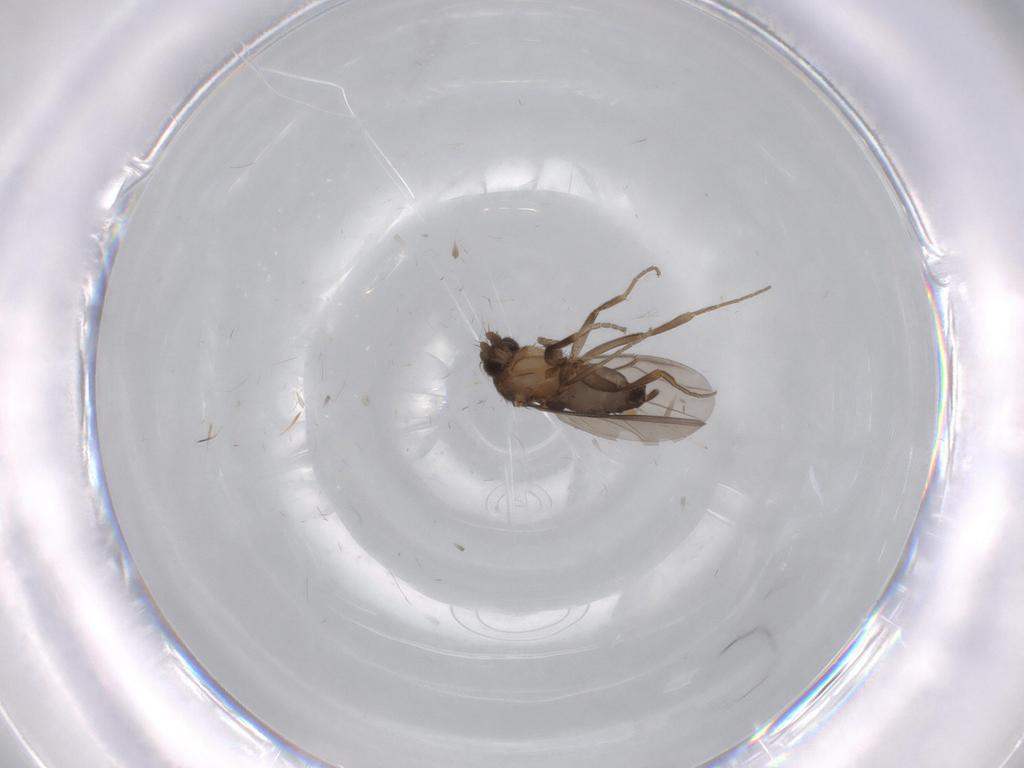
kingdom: Animalia
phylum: Arthropoda
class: Insecta
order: Diptera
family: Phoridae
